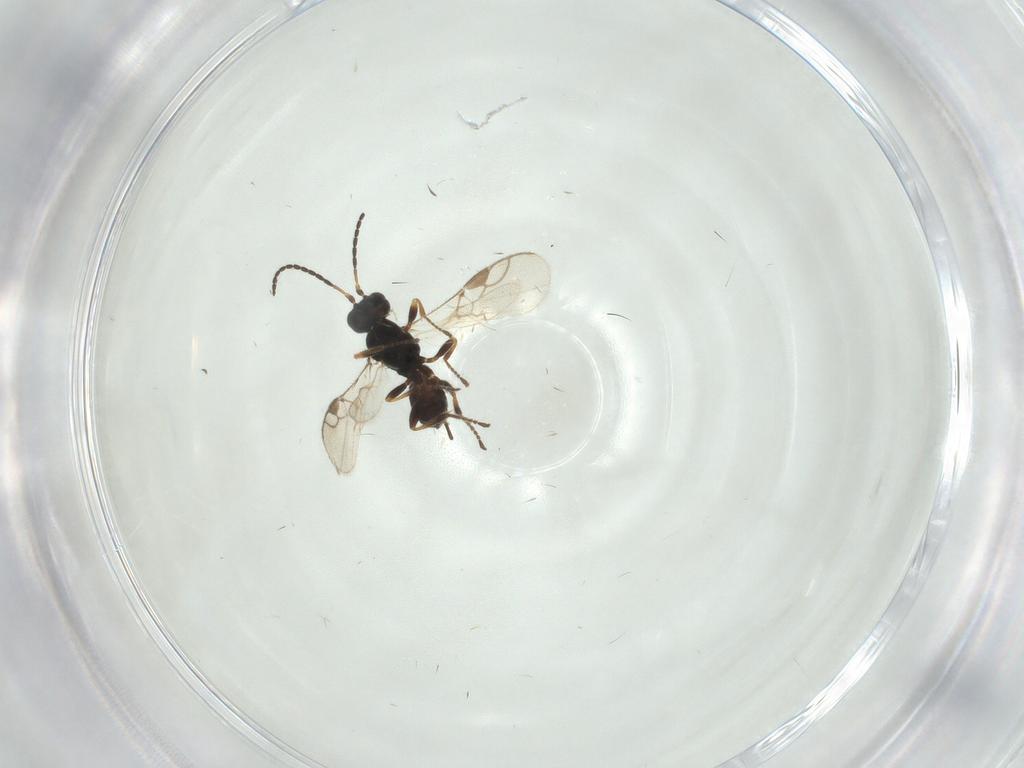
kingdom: Animalia
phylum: Arthropoda
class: Insecta
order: Hymenoptera
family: Braconidae
